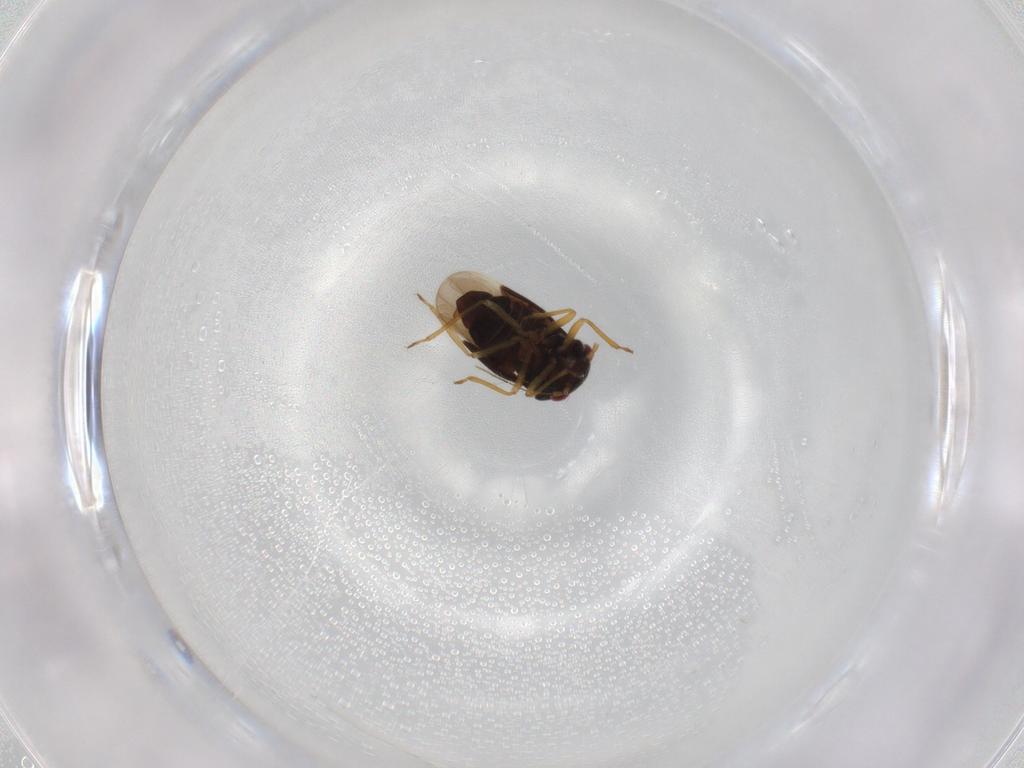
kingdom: Animalia
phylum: Arthropoda
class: Insecta
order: Hemiptera
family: Schizopteridae
